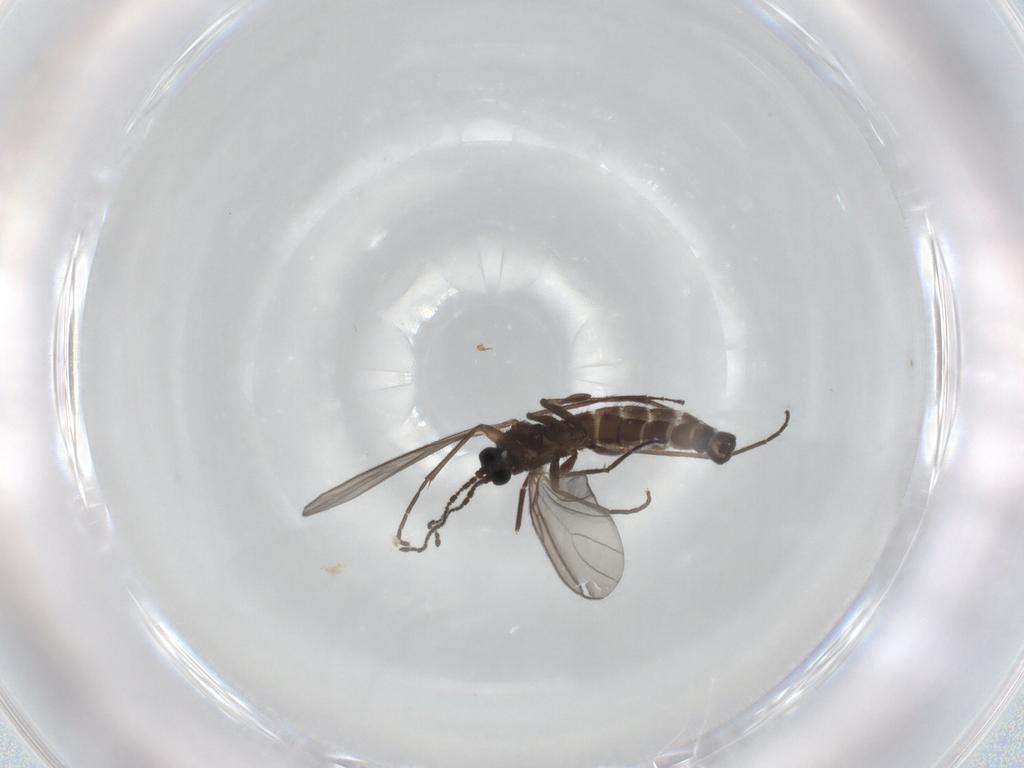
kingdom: Animalia
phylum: Arthropoda
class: Insecta
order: Diptera
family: Sciaridae
